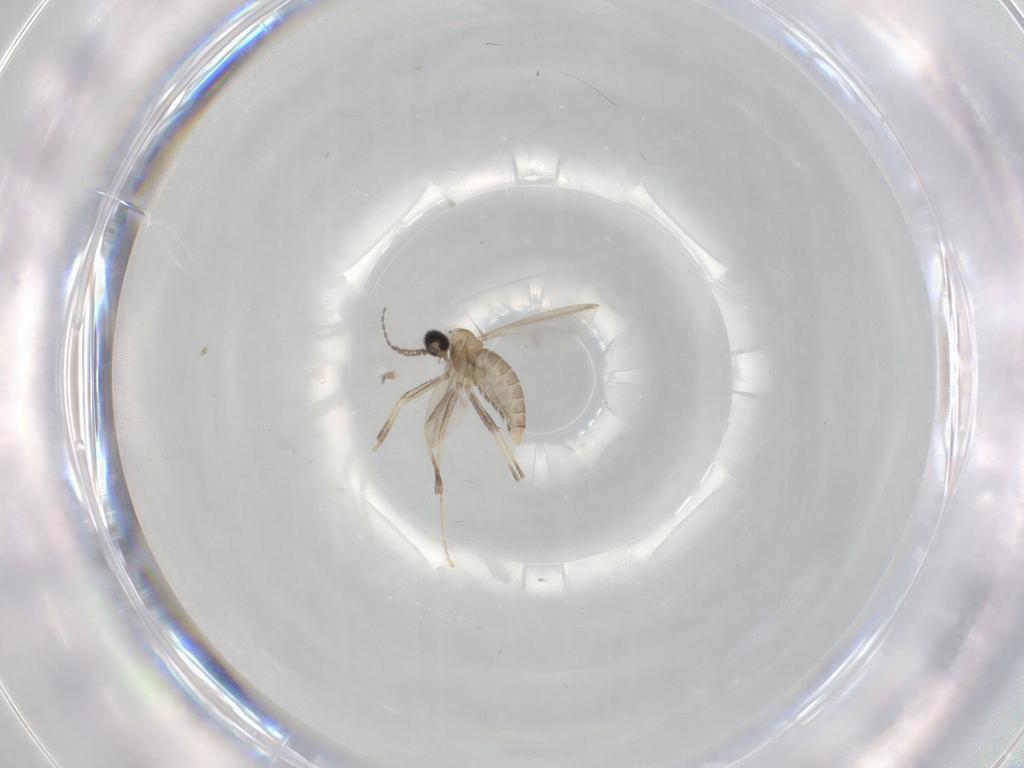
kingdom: Animalia
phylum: Arthropoda
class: Insecta
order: Diptera
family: Cecidomyiidae
